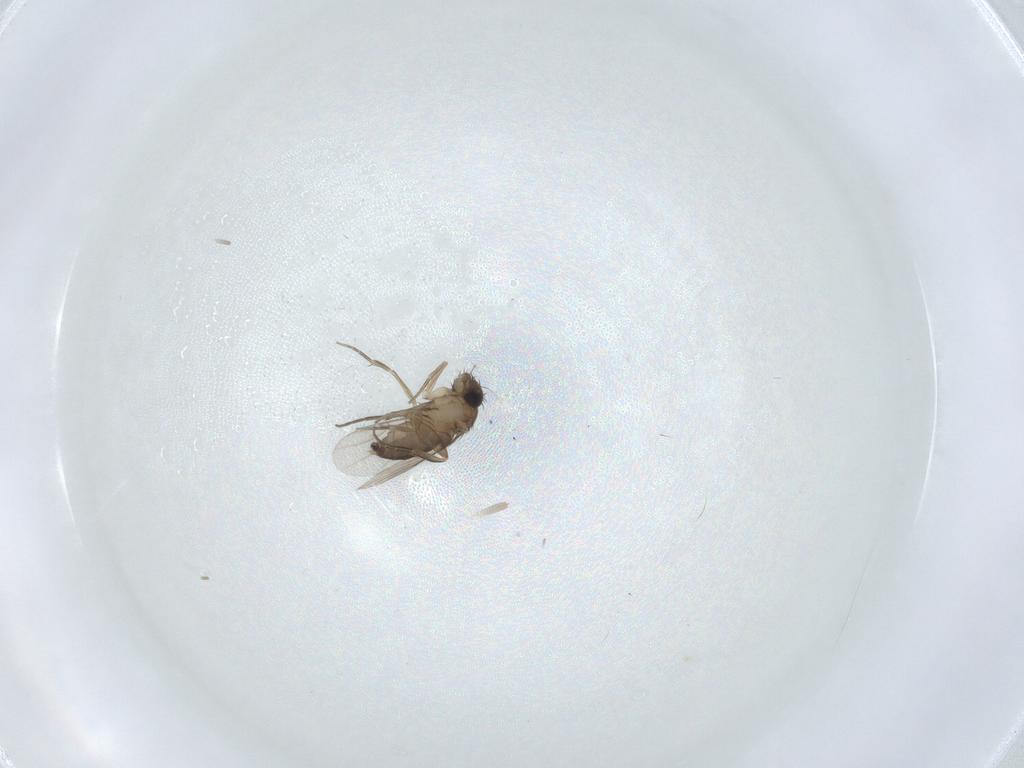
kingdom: Animalia
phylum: Arthropoda
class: Insecta
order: Diptera
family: Phoridae
